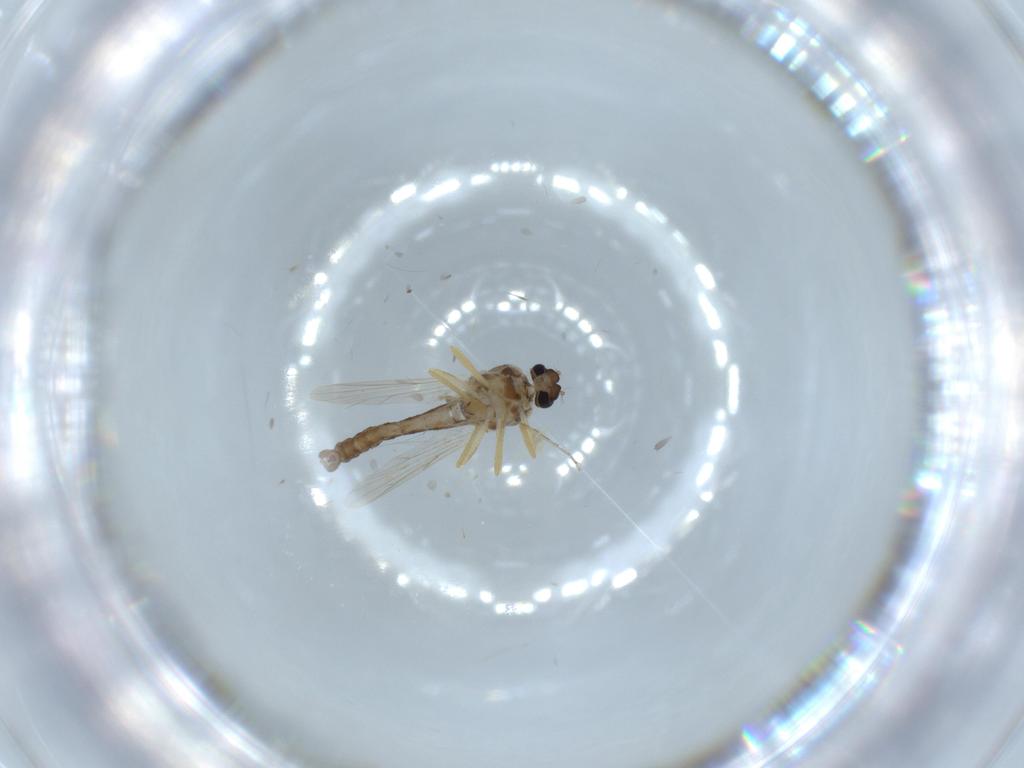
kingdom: Animalia
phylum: Arthropoda
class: Insecta
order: Diptera
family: Ceratopogonidae
